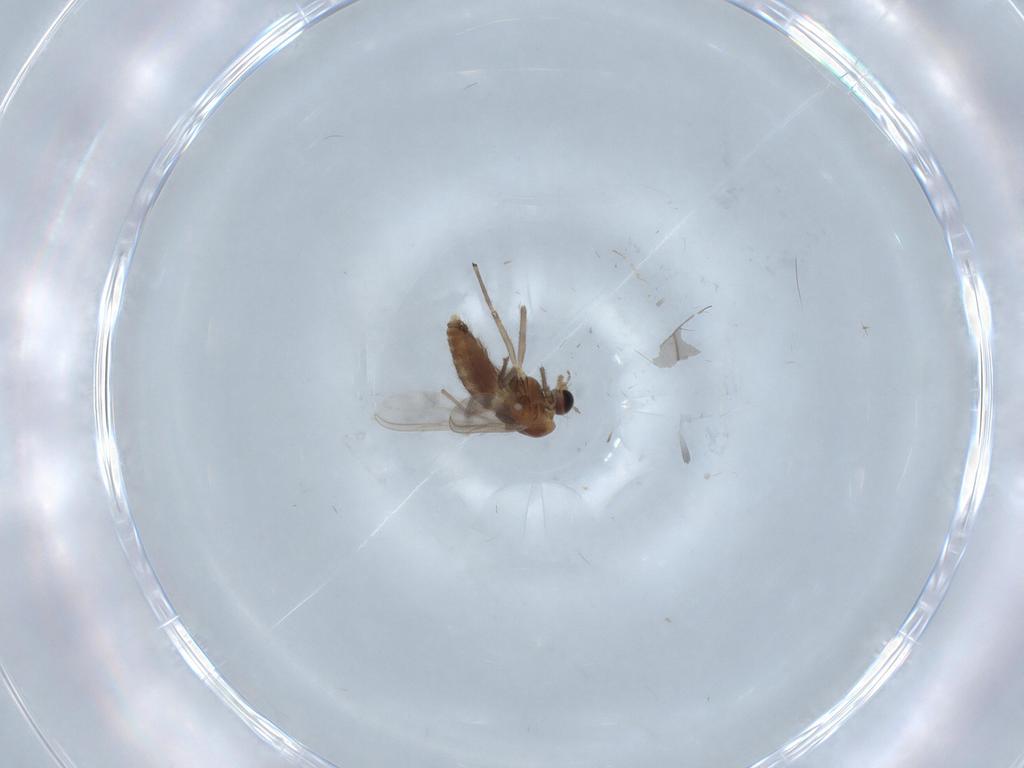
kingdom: Animalia
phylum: Arthropoda
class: Insecta
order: Diptera
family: Chironomidae
